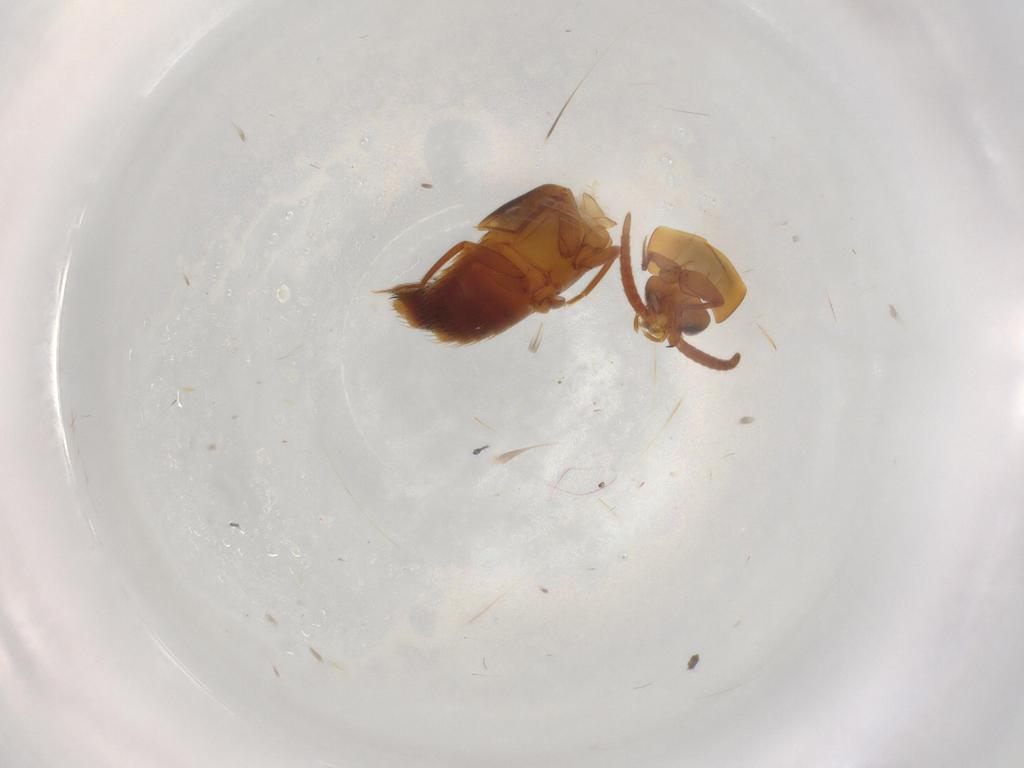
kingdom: Animalia
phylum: Arthropoda
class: Insecta
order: Coleoptera
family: Staphylinidae
